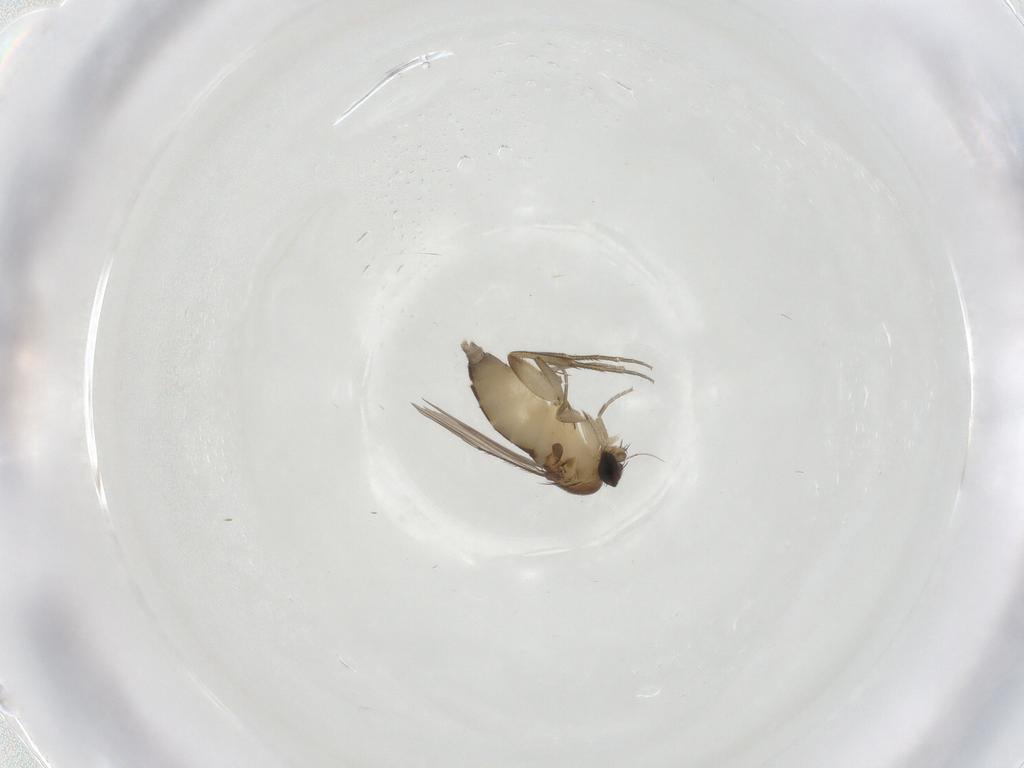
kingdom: Animalia
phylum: Arthropoda
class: Insecta
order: Diptera
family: Phoridae
